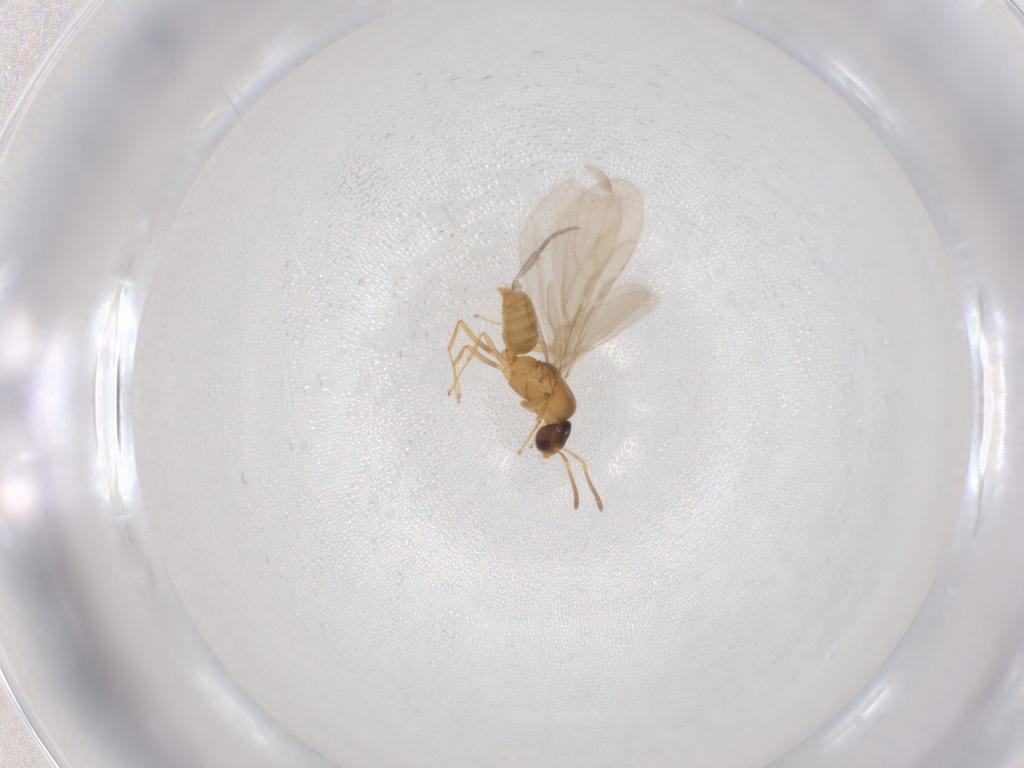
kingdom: Animalia
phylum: Arthropoda
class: Insecta
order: Hymenoptera
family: Formicidae
